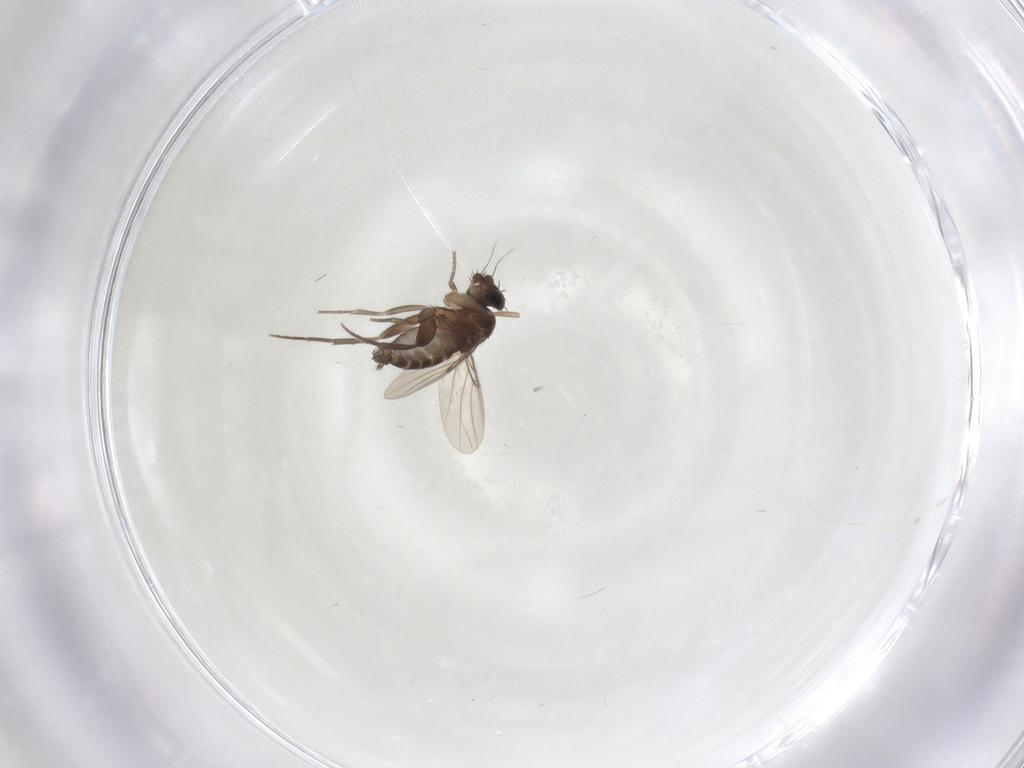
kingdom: Animalia
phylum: Arthropoda
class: Insecta
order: Diptera
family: Phoridae
